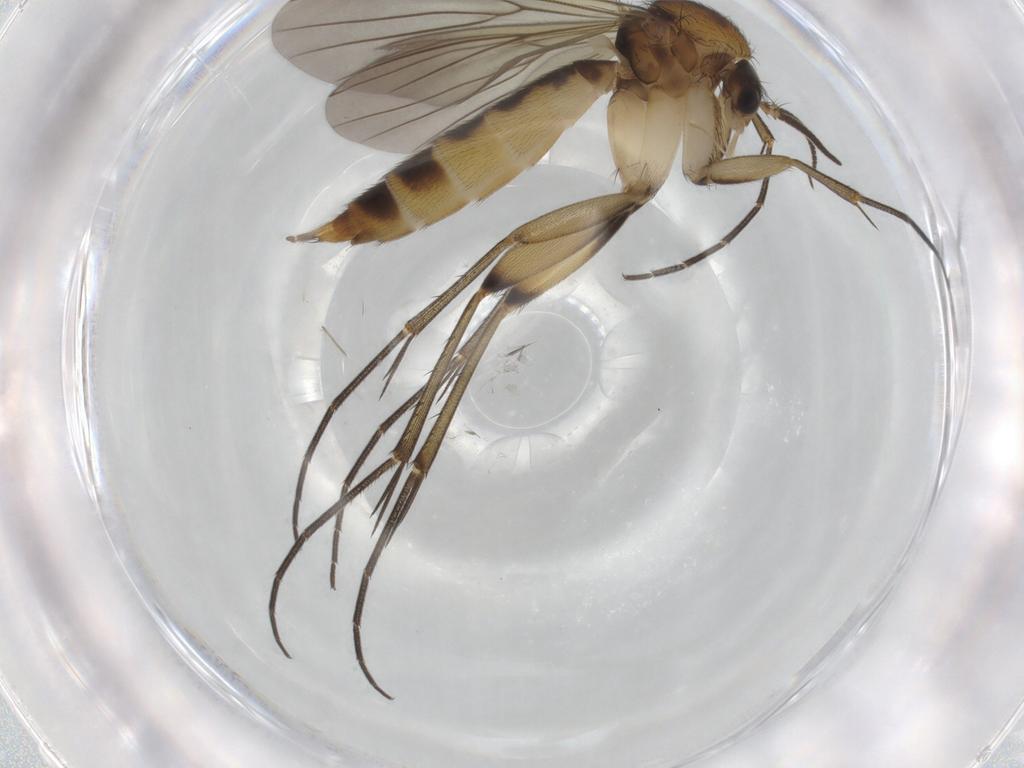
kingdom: Animalia
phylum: Arthropoda
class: Insecta
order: Diptera
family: Mycetophilidae
